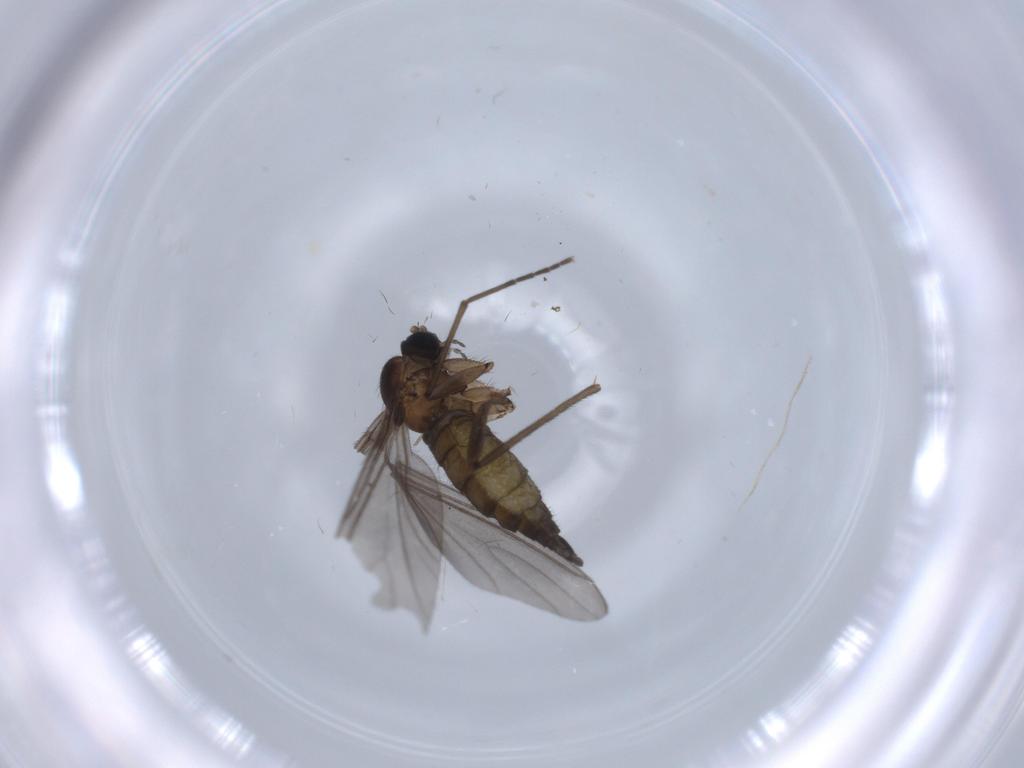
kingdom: Animalia
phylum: Arthropoda
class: Insecta
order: Diptera
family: Sciaridae
